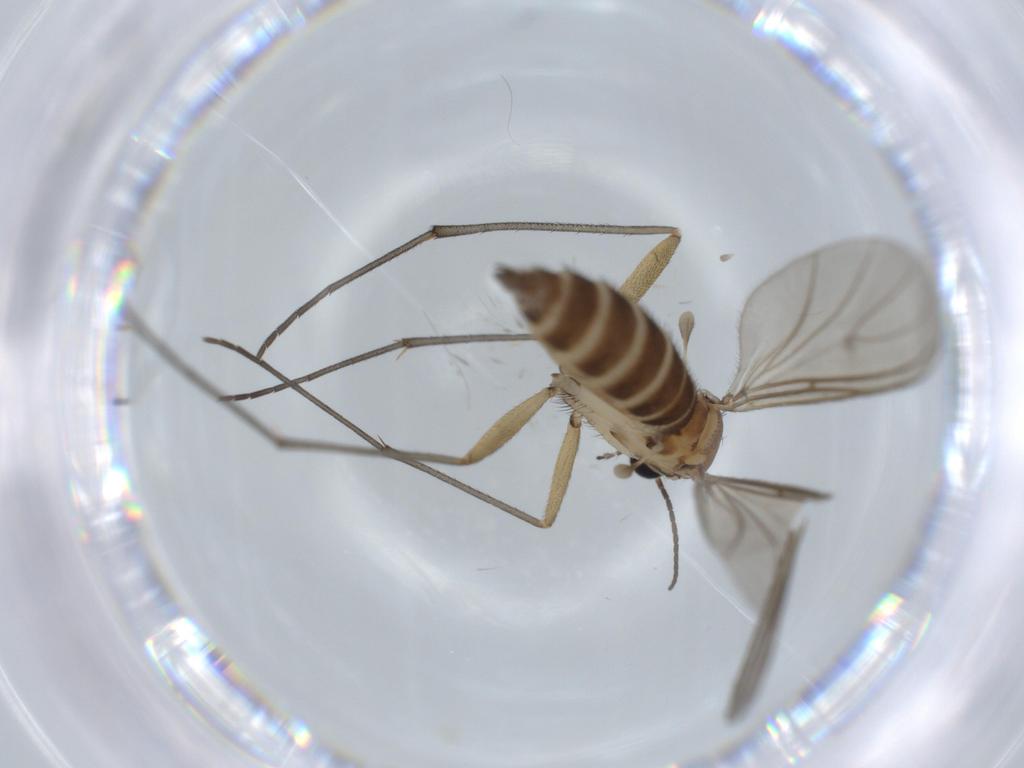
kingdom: Animalia
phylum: Arthropoda
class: Insecta
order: Diptera
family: Sciaridae
